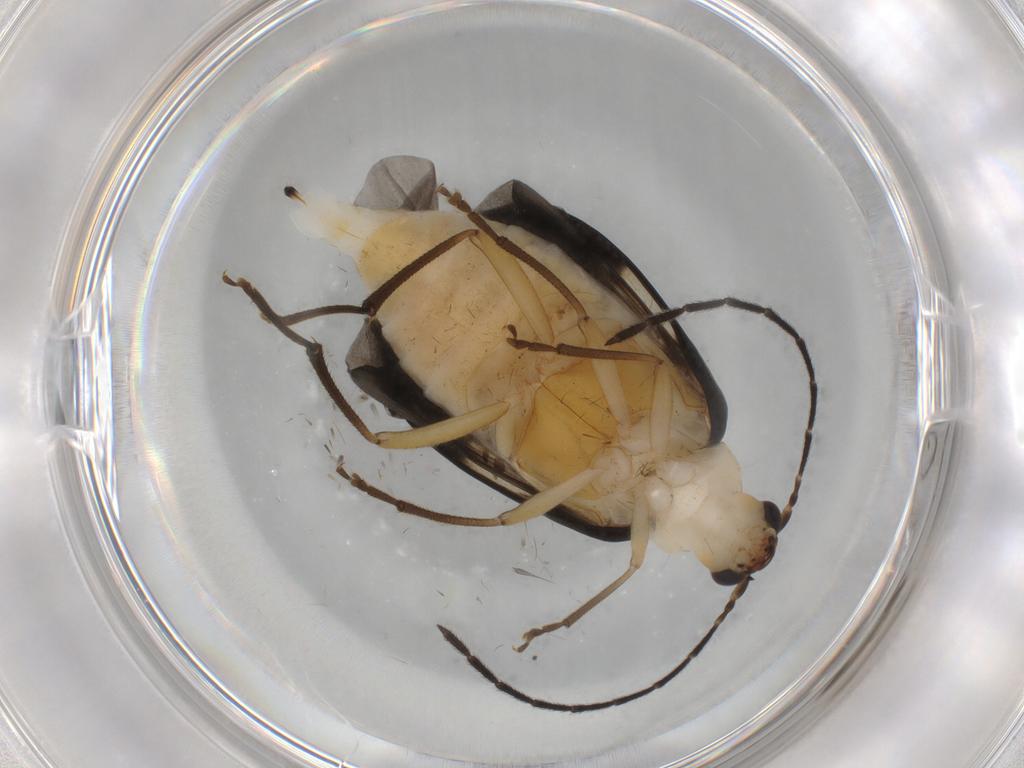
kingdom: Animalia
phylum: Arthropoda
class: Insecta
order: Coleoptera
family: Chrysomelidae
